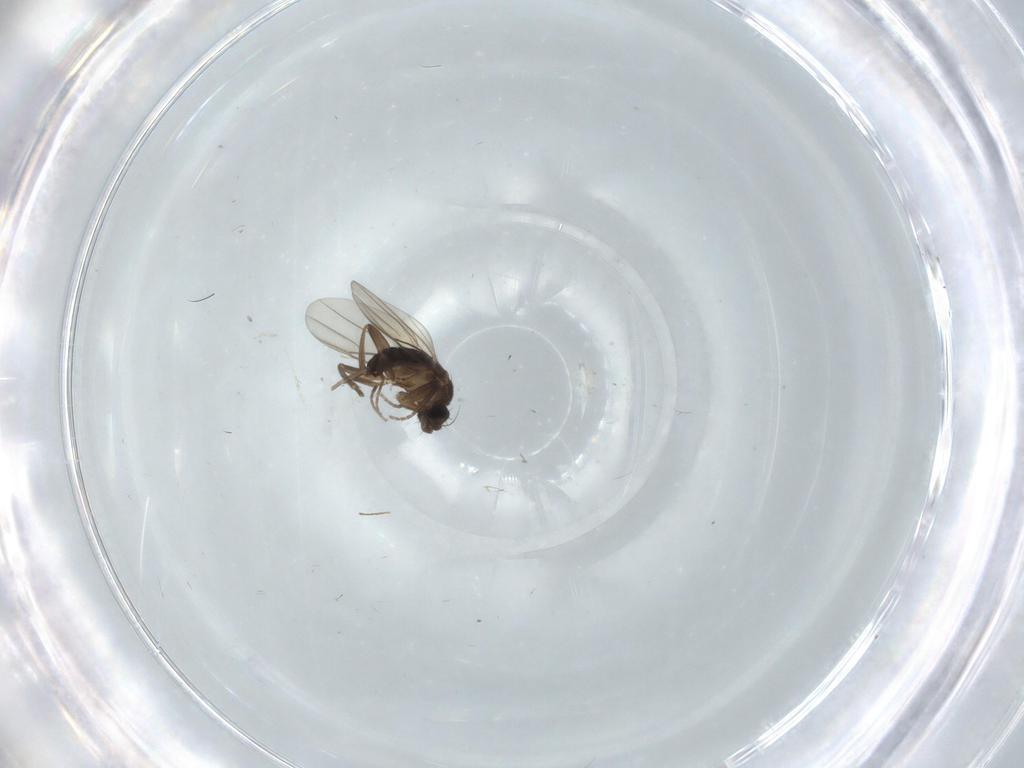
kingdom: Animalia
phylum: Arthropoda
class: Insecta
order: Diptera
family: Phoridae
